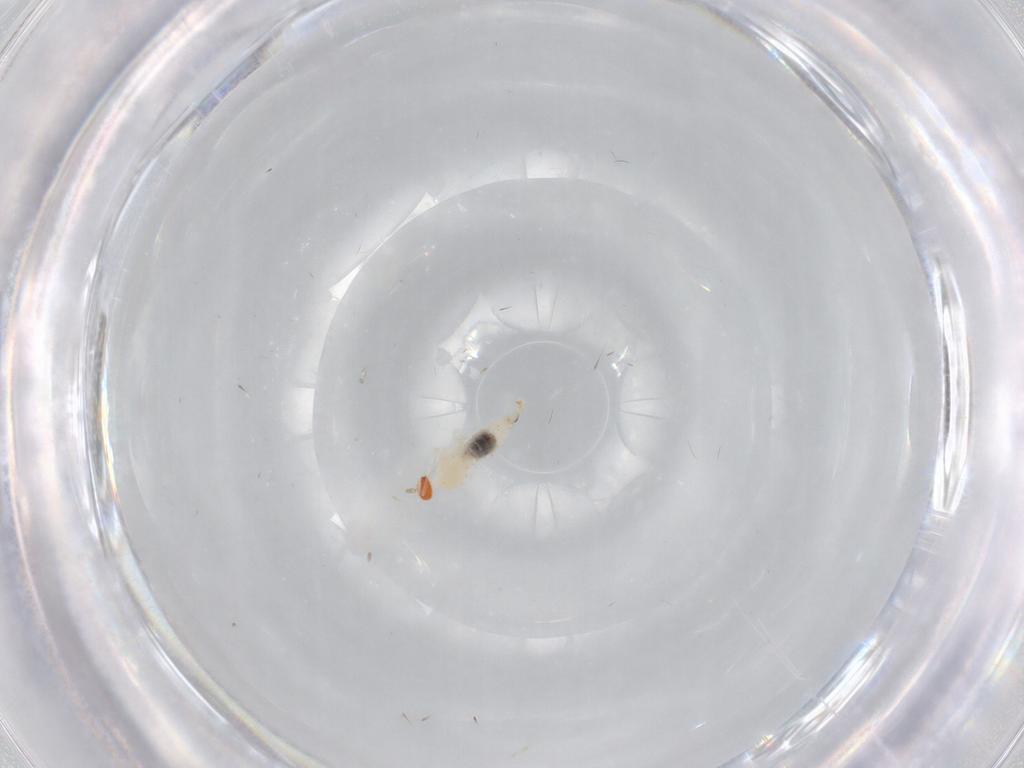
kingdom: Animalia
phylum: Arthropoda
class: Insecta
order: Diptera
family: Cecidomyiidae
